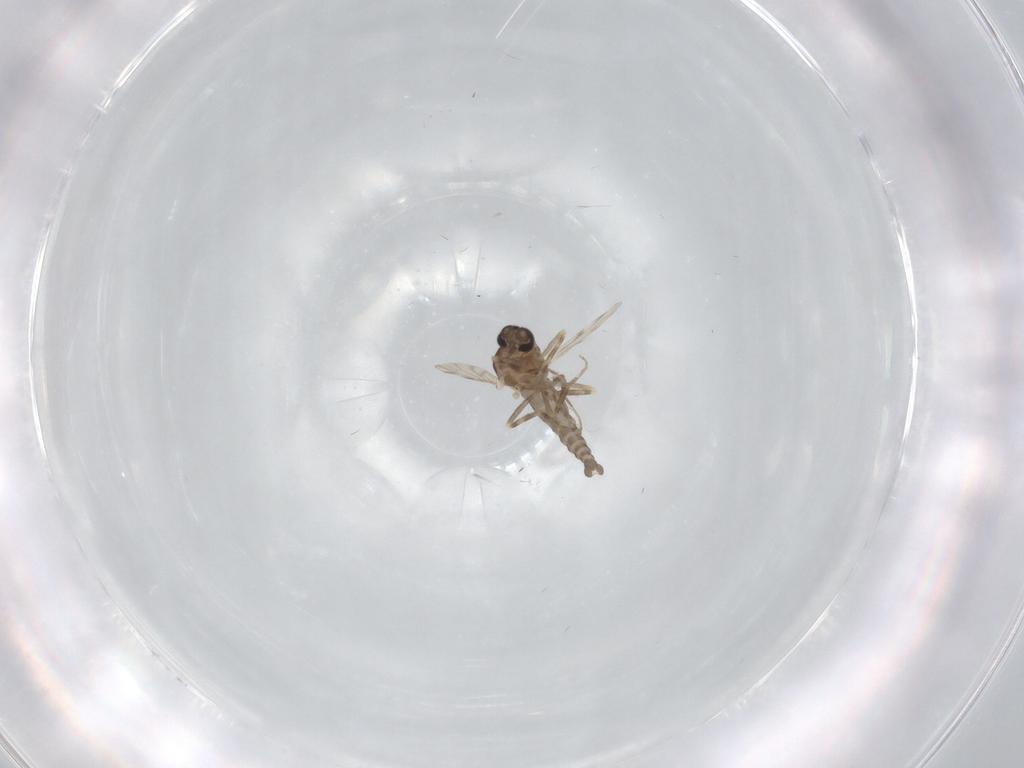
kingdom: Animalia
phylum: Arthropoda
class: Insecta
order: Diptera
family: Ceratopogonidae
